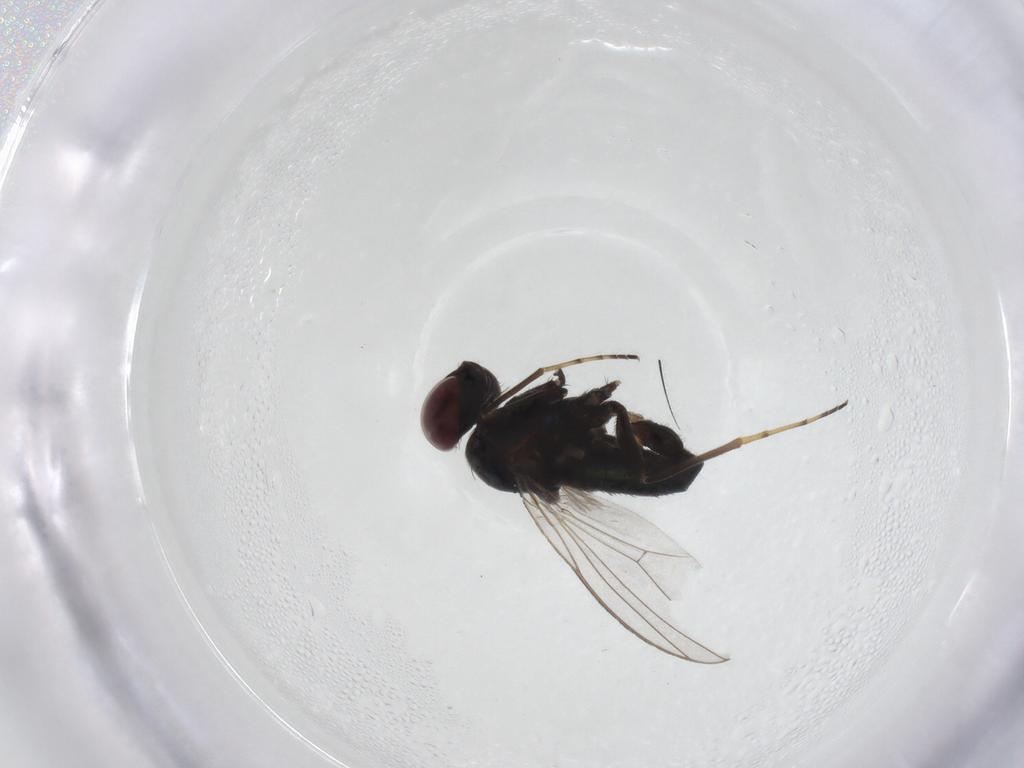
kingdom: Animalia
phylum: Arthropoda
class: Insecta
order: Diptera
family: Dolichopodidae
